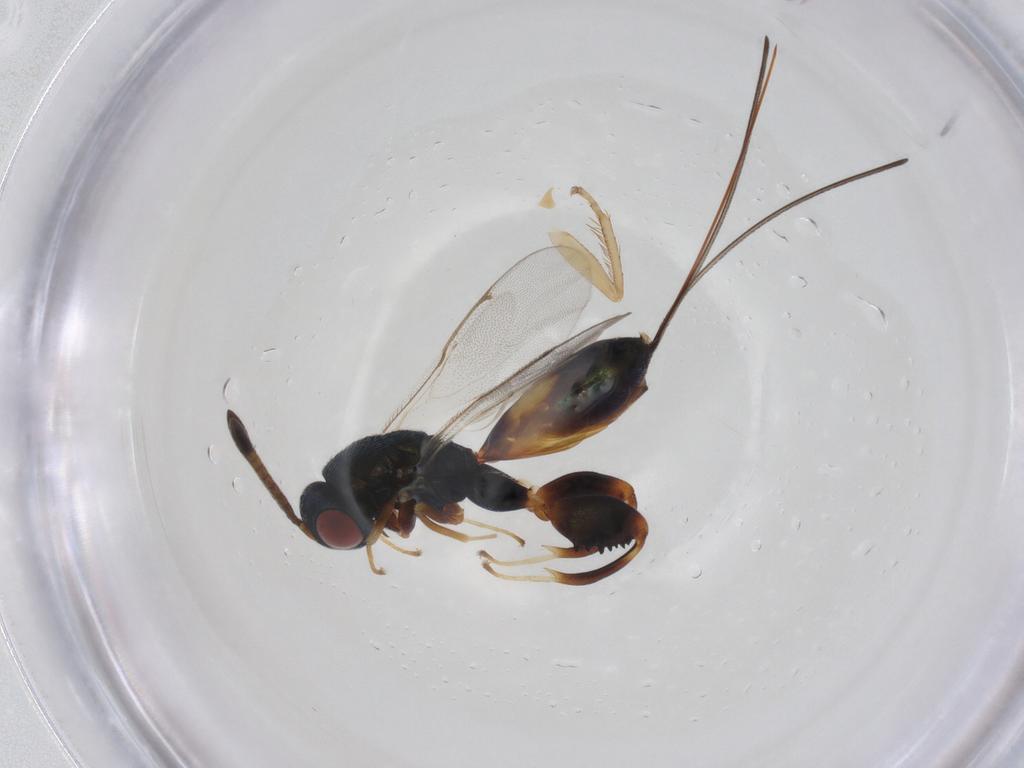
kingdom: Animalia
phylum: Arthropoda
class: Insecta
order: Hymenoptera
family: Torymidae
